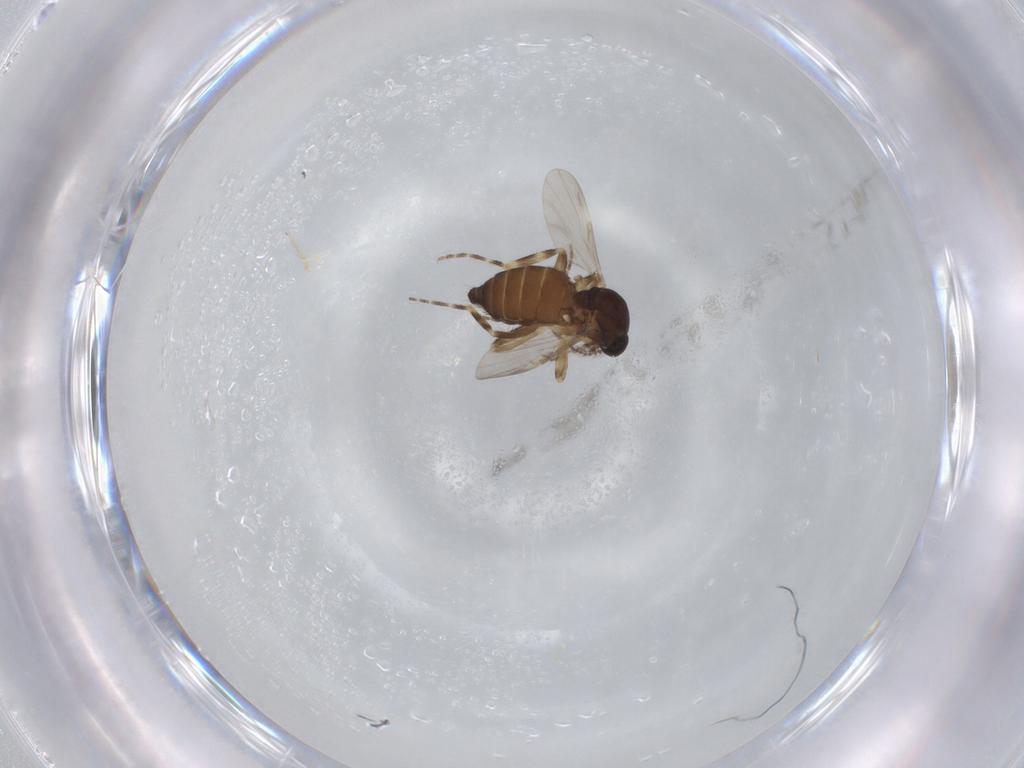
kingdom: Animalia
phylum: Arthropoda
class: Insecta
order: Diptera
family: Ceratopogonidae
